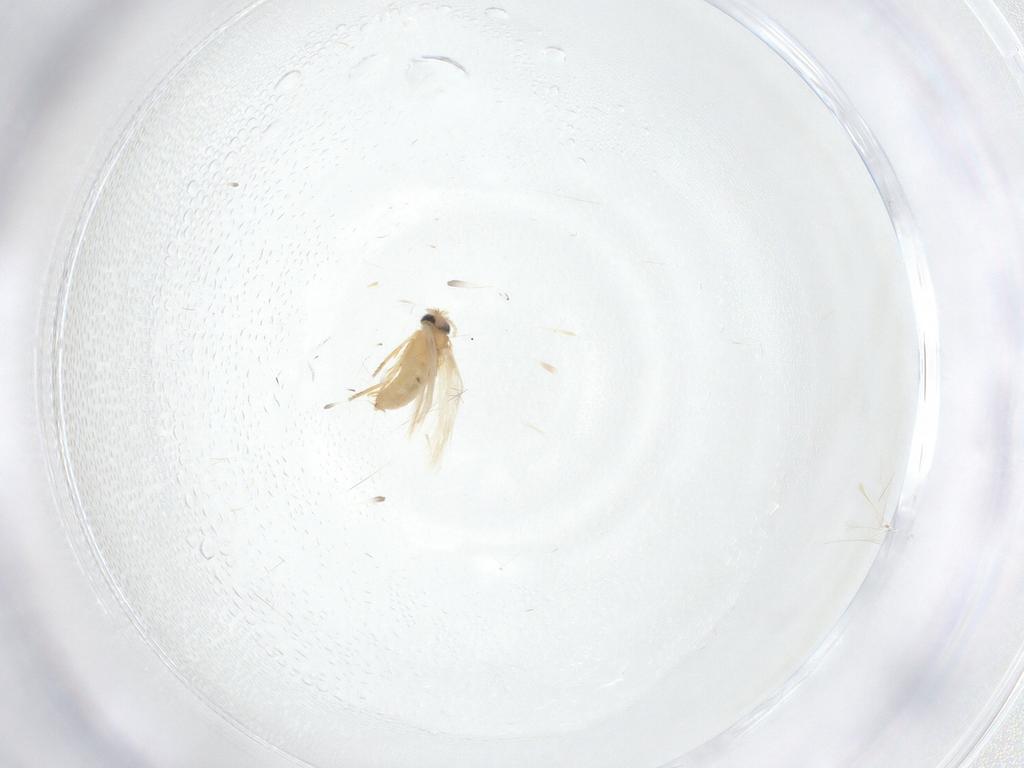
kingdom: Animalia
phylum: Arthropoda
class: Insecta
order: Lepidoptera
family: Crambidae
